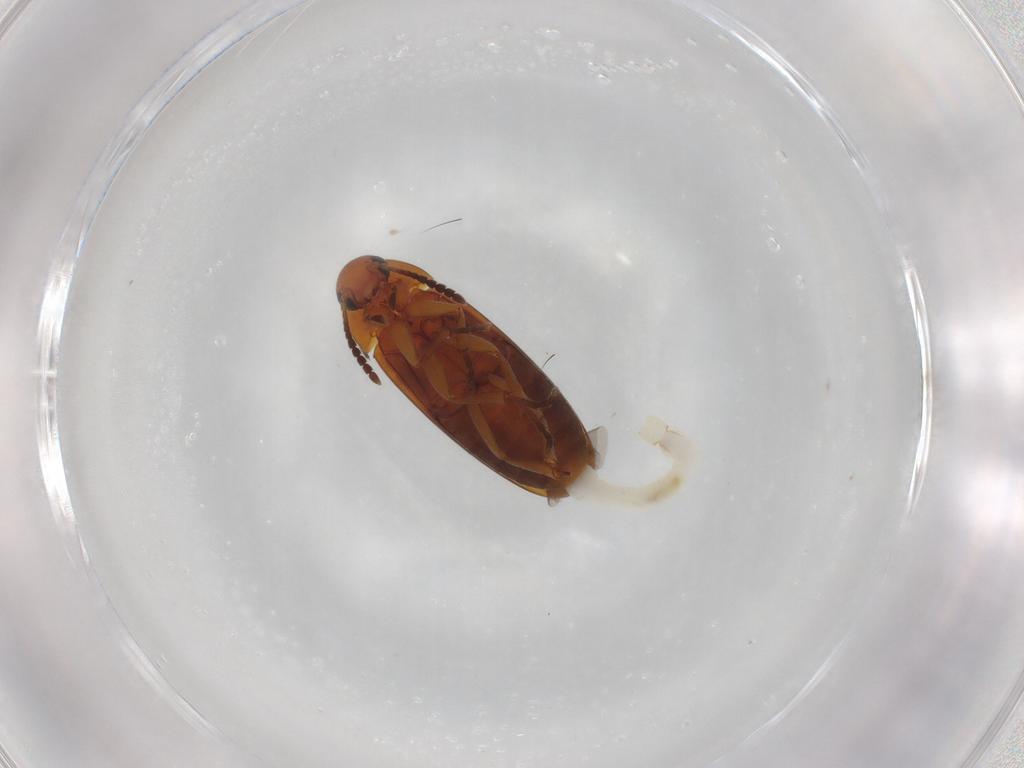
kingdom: Animalia
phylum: Arthropoda
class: Insecta
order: Coleoptera
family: Scraptiidae
